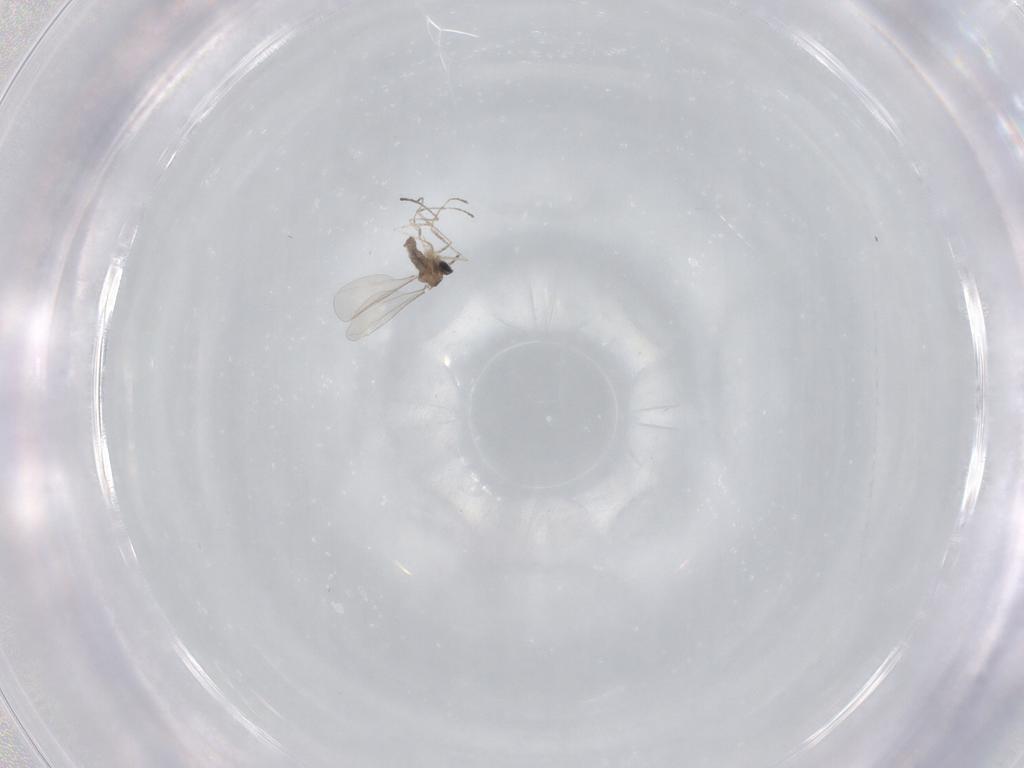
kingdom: Animalia
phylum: Arthropoda
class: Insecta
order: Diptera
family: Cecidomyiidae
